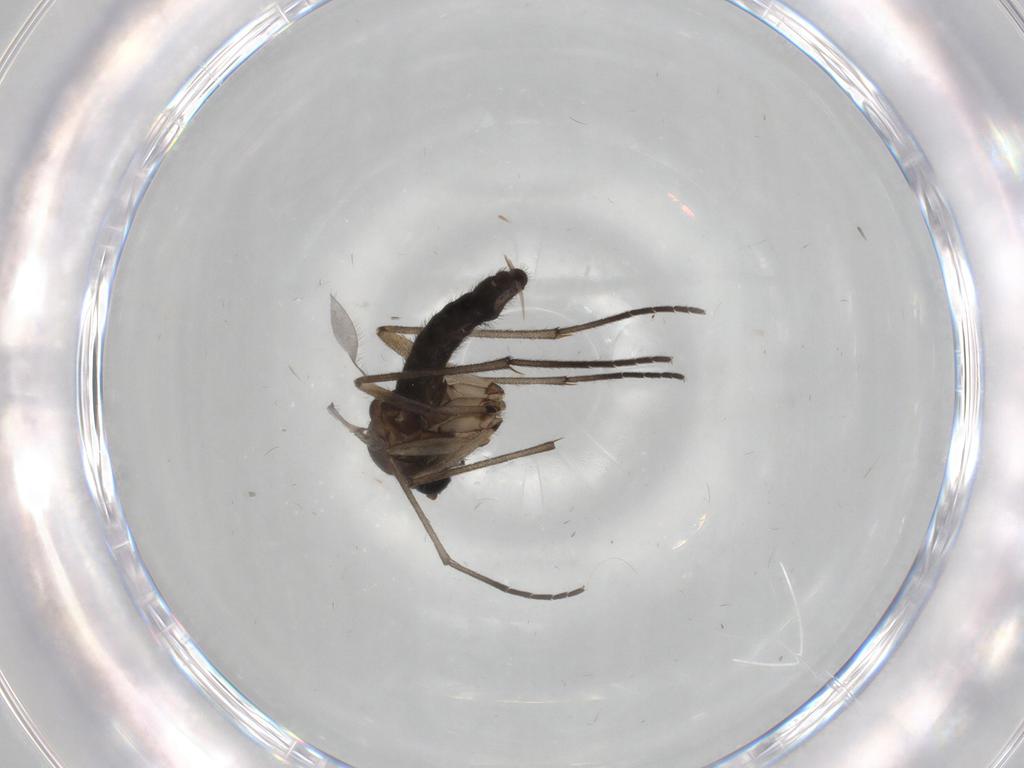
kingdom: Animalia
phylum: Arthropoda
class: Insecta
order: Diptera
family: Sciaridae
